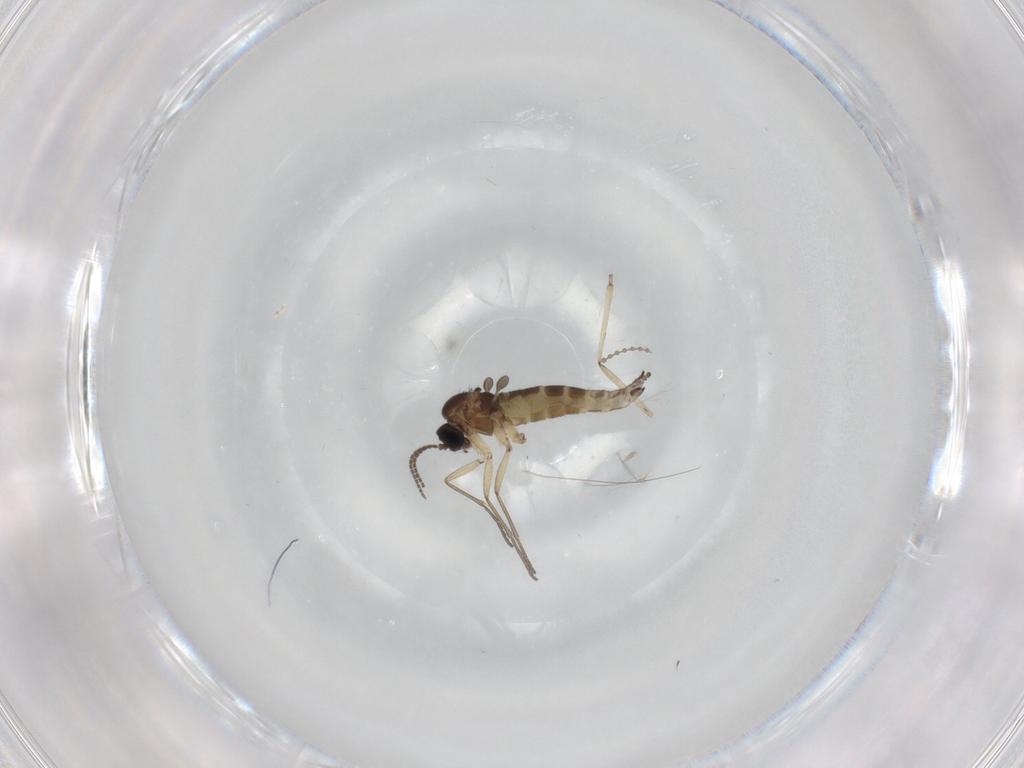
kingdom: Animalia
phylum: Arthropoda
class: Insecta
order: Diptera
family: Sciaridae
